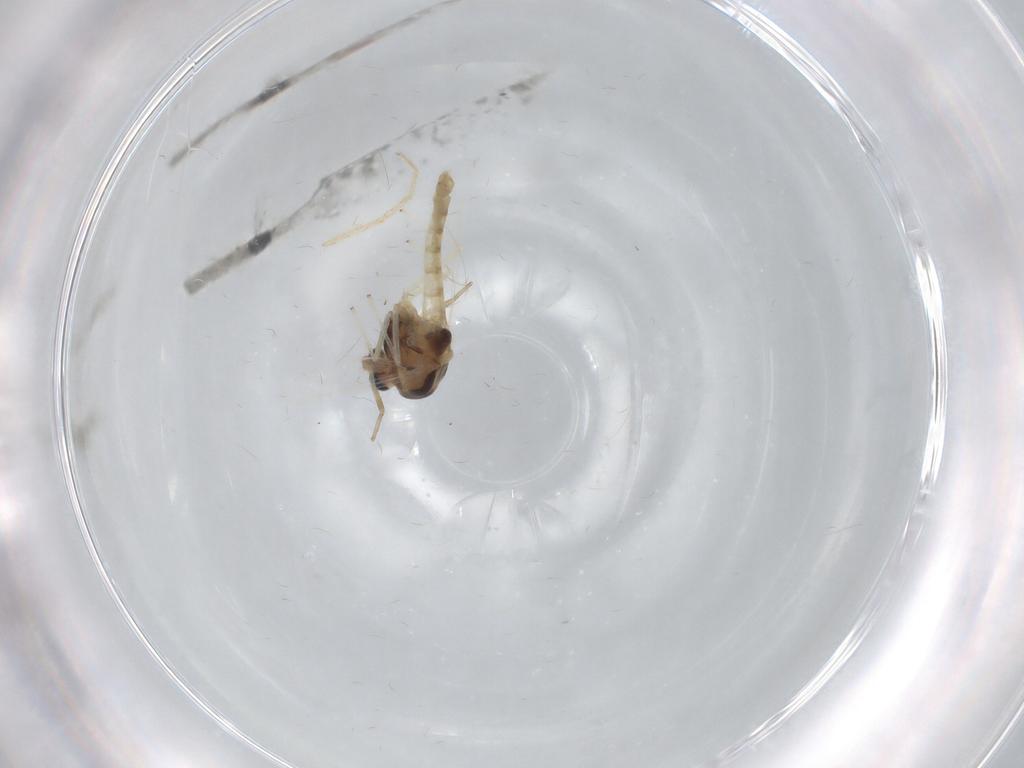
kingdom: Animalia
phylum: Arthropoda
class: Insecta
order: Diptera
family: Chironomidae
